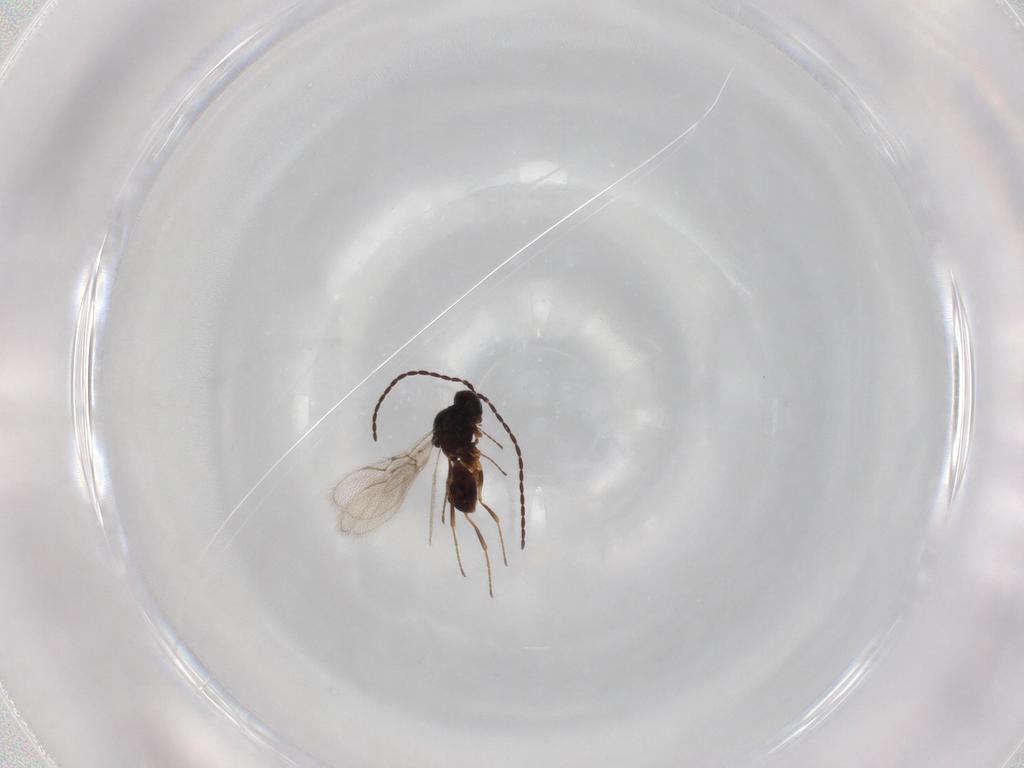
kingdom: Animalia
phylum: Arthropoda
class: Insecta
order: Hymenoptera
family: Figitidae
